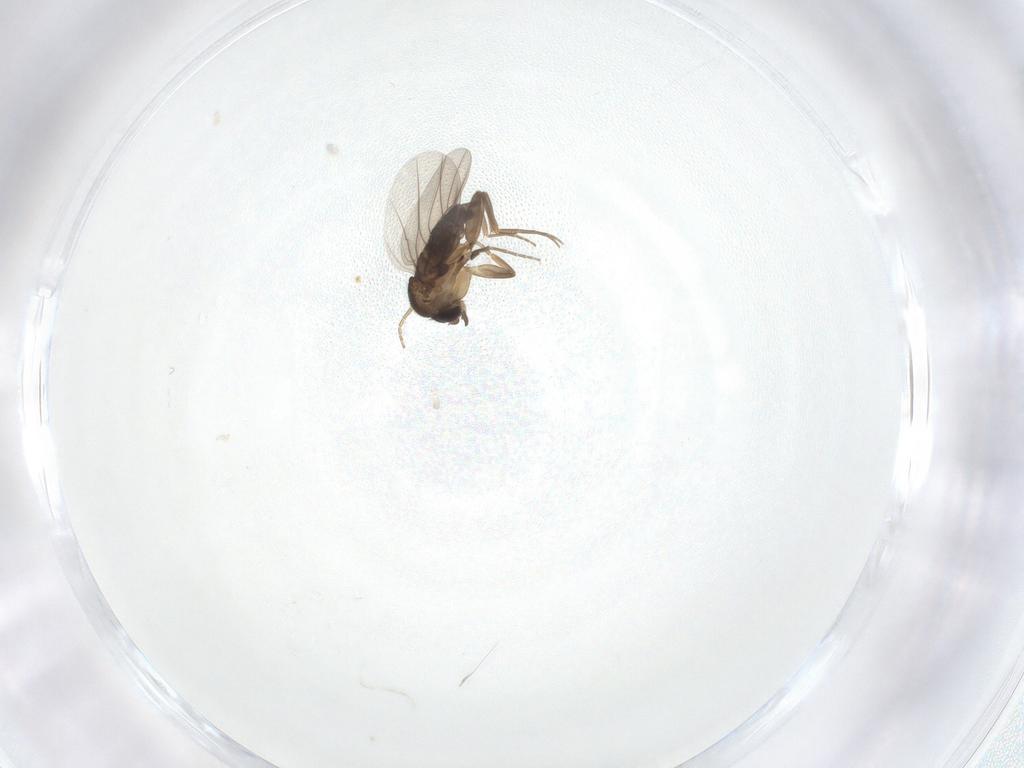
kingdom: Animalia
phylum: Arthropoda
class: Insecta
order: Diptera
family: Phoridae
